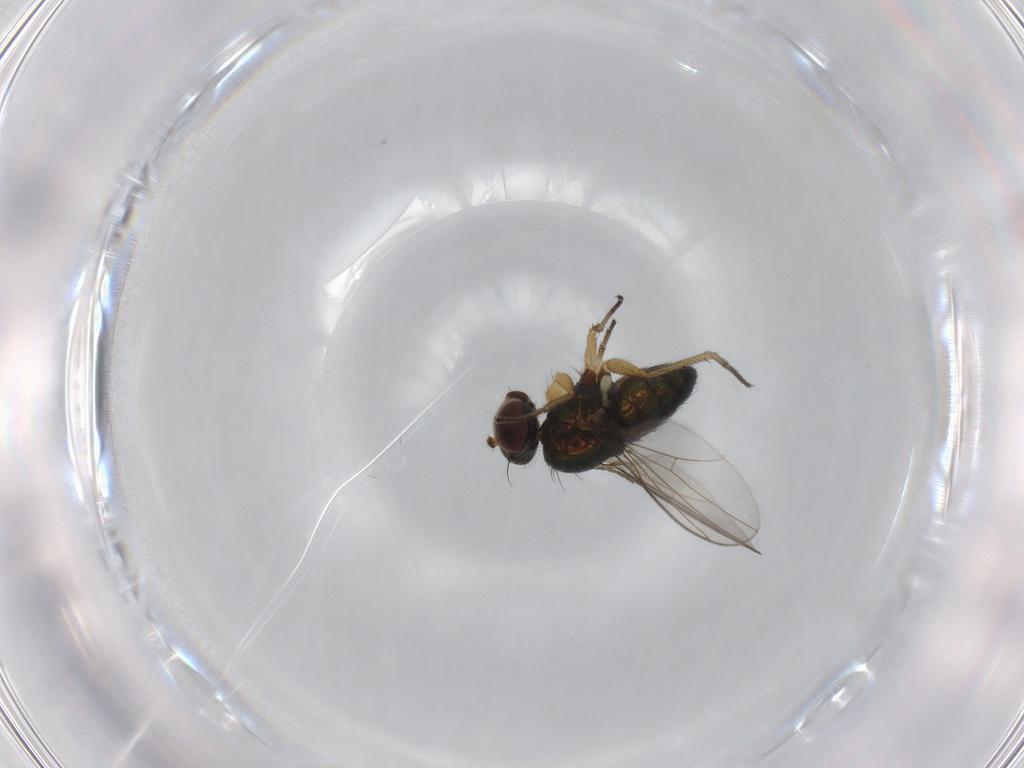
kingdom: Animalia
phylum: Arthropoda
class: Insecta
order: Diptera
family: Dolichopodidae
